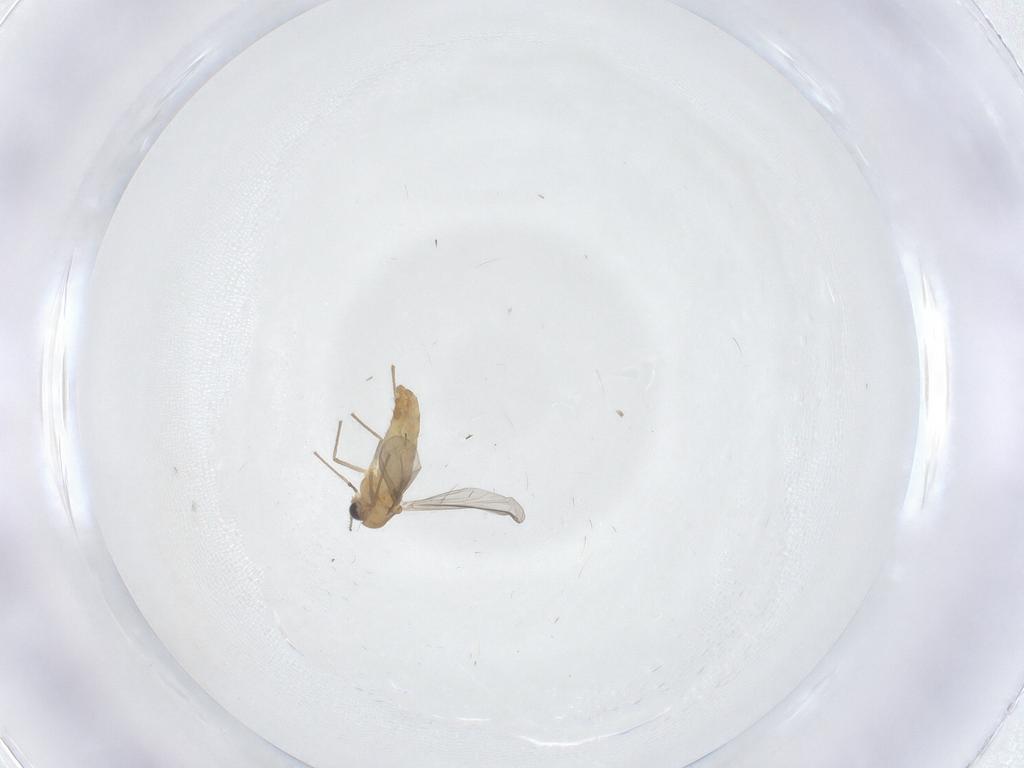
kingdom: Animalia
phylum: Arthropoda
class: Insecta
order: Diptera
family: Chironomidae
